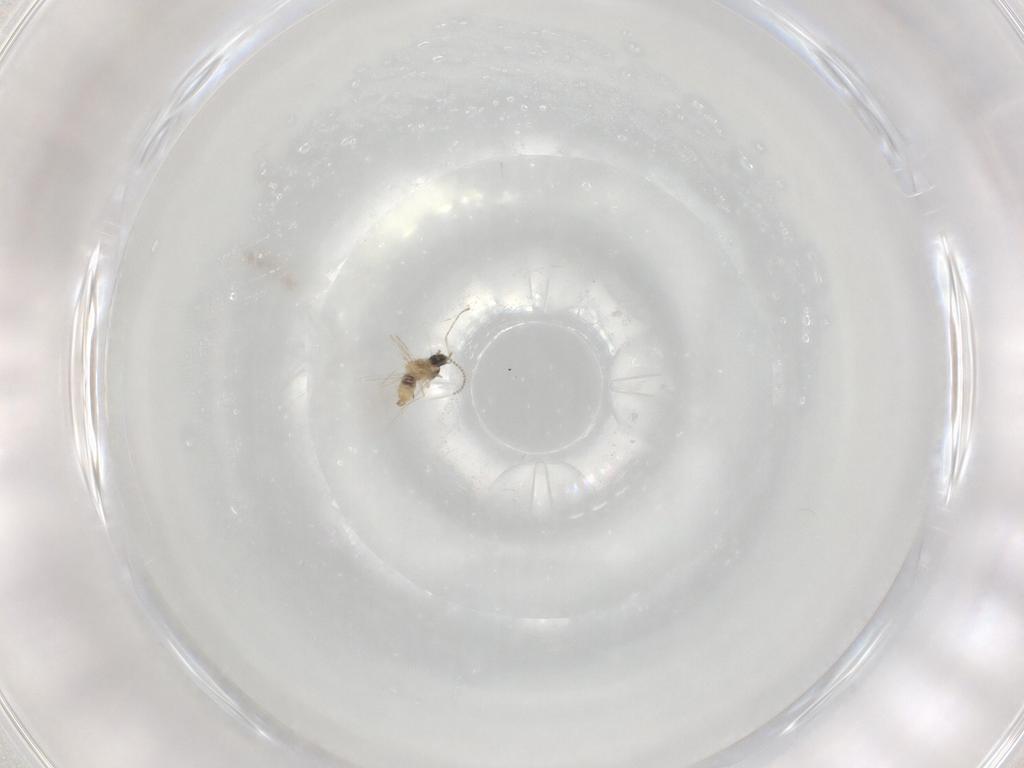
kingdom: Animalia
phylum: Arthropoda
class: Insecta
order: Diptera
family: Cecidomyiidae
